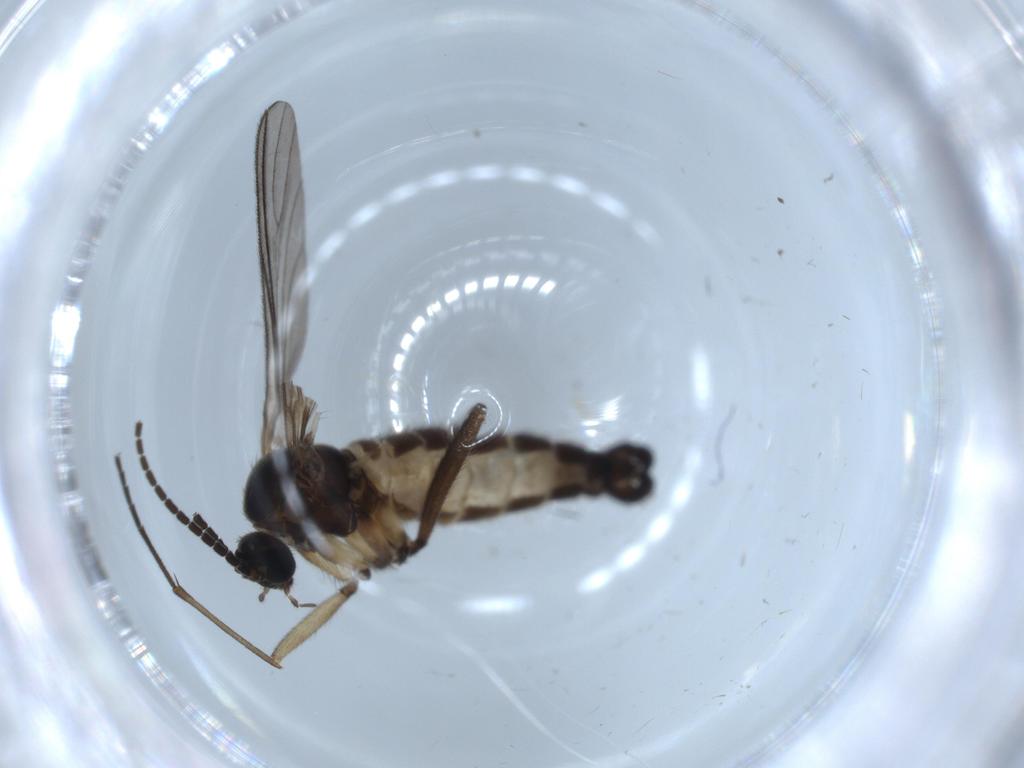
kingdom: Animalia
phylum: Arthropoda
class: Insecta
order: Diptera
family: Sciaridae
